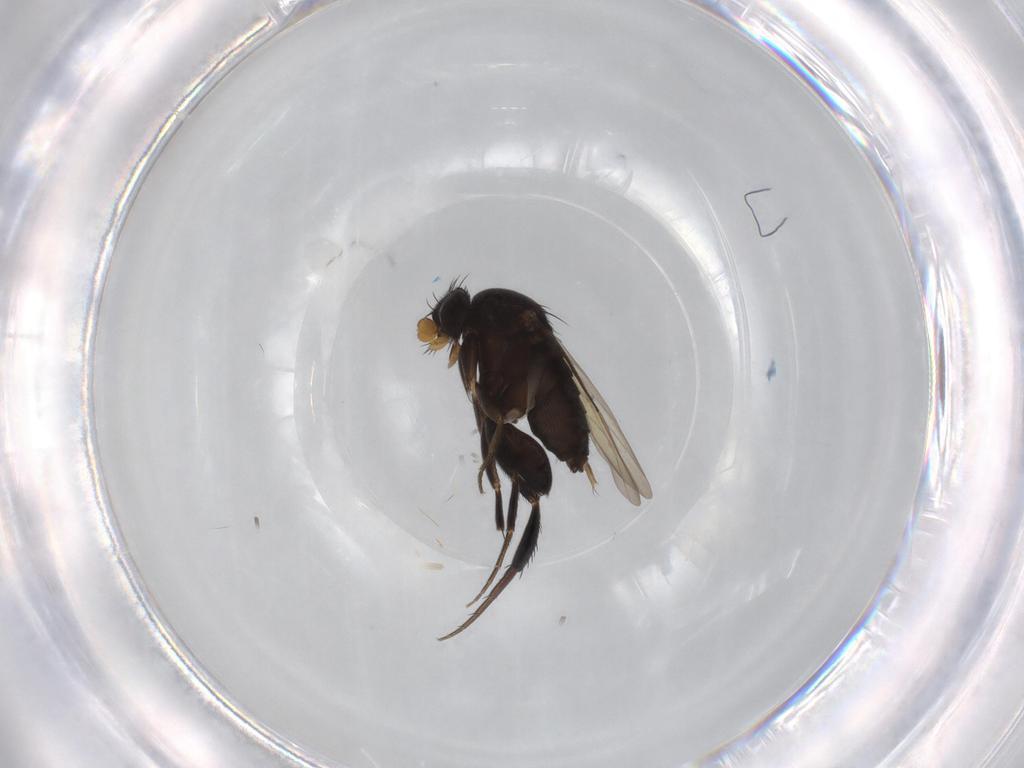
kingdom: Animalia
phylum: Arthropoda
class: Insecta
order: Diptera
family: Phoridae
